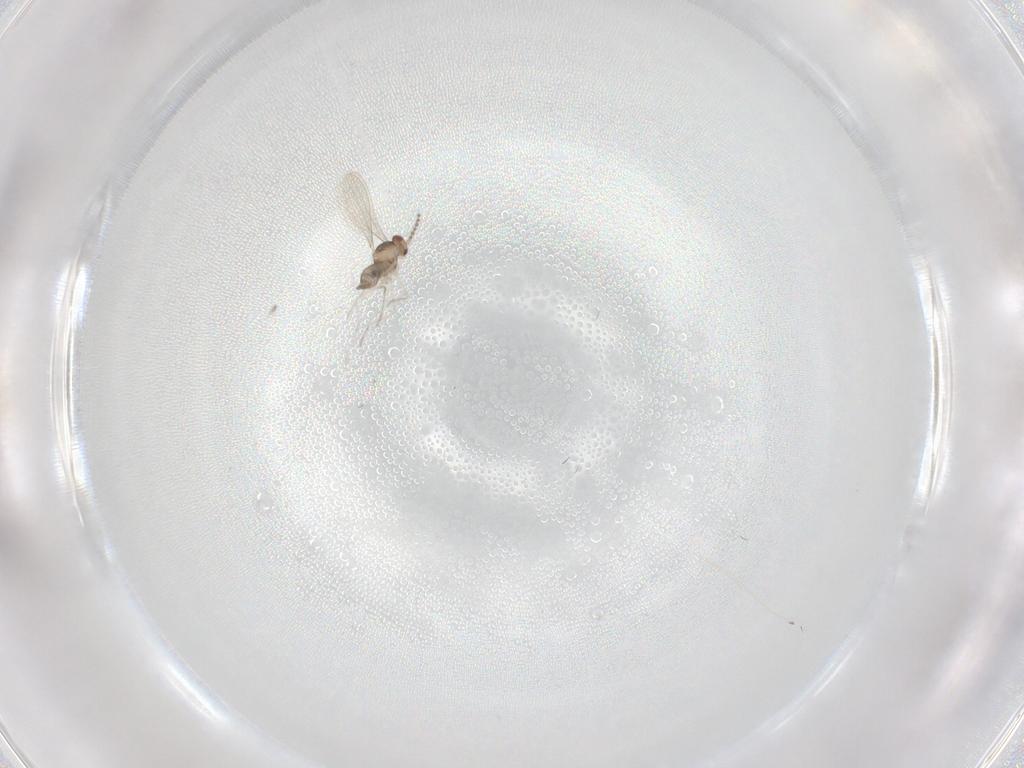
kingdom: Animalia
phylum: Arthropoda
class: Insecta
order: Diptera
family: Cecidomyiidae
